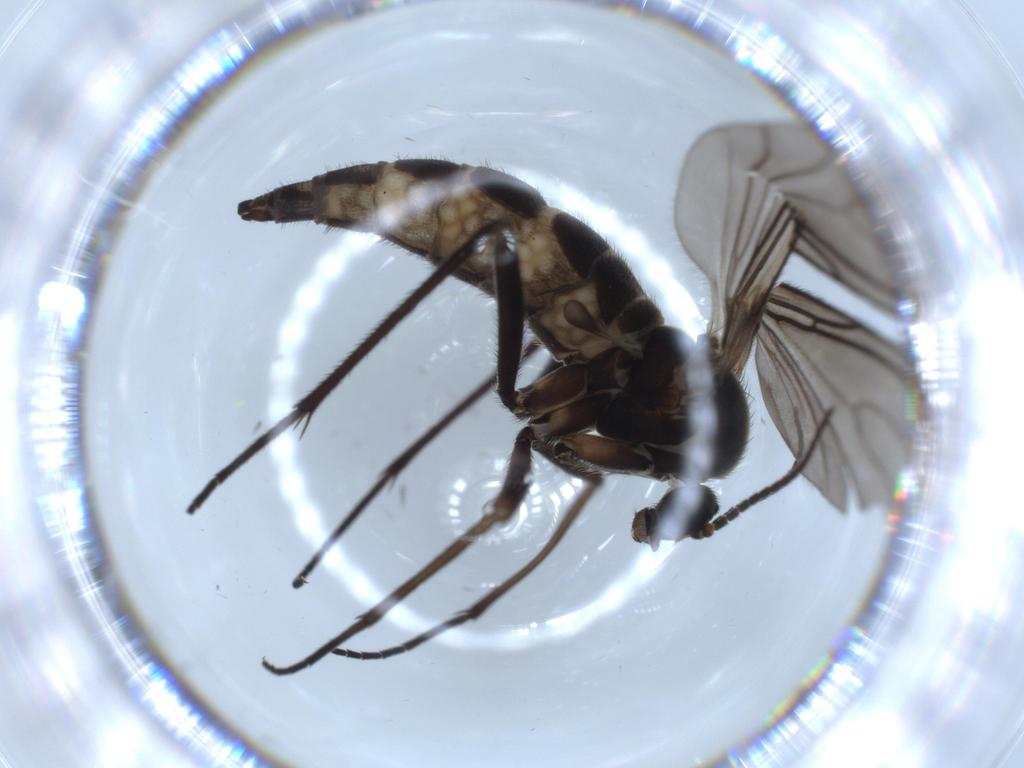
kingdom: Animalia
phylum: Arthropoda
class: Insecta
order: Diptera
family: Sciaridae
